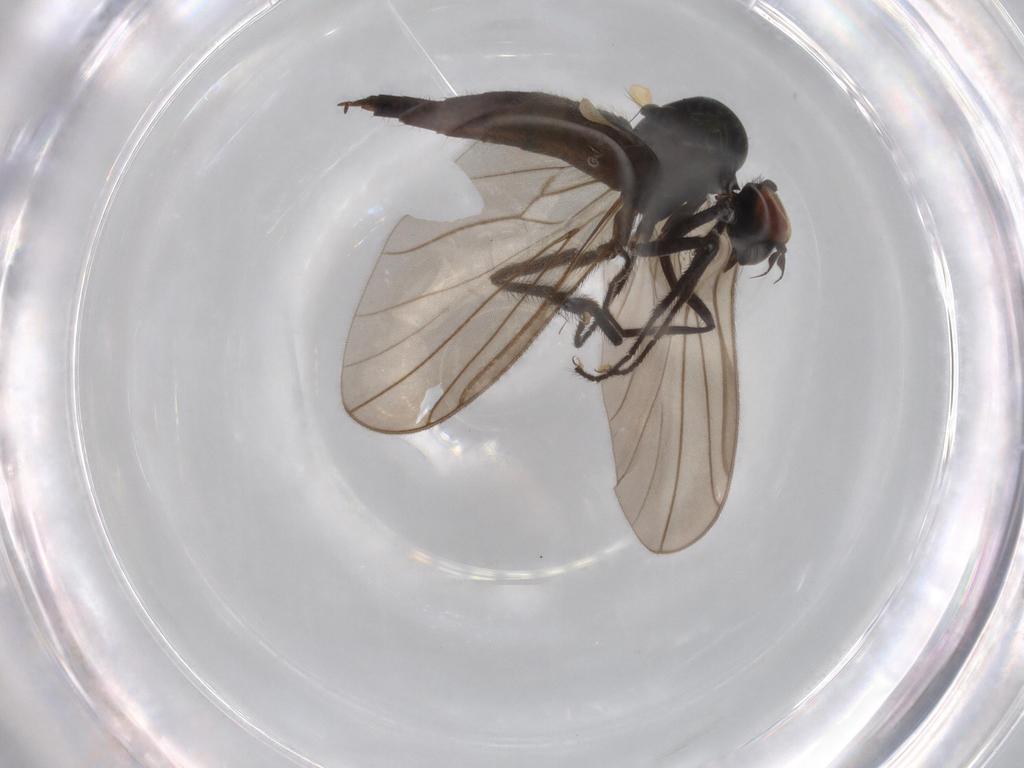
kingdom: Animalia
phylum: Arthropoda
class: Insecta
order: Diptera
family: Hybotidae
